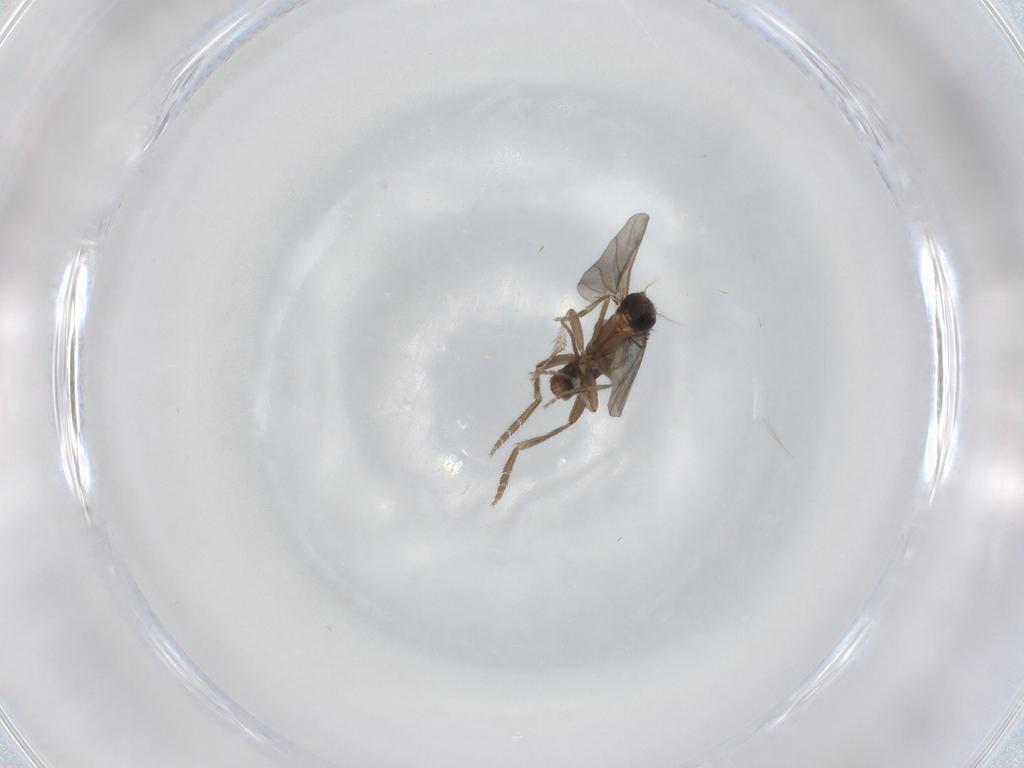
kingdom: Animalia
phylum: Arthropoda
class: Insecta
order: Diptera
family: Phoridae
